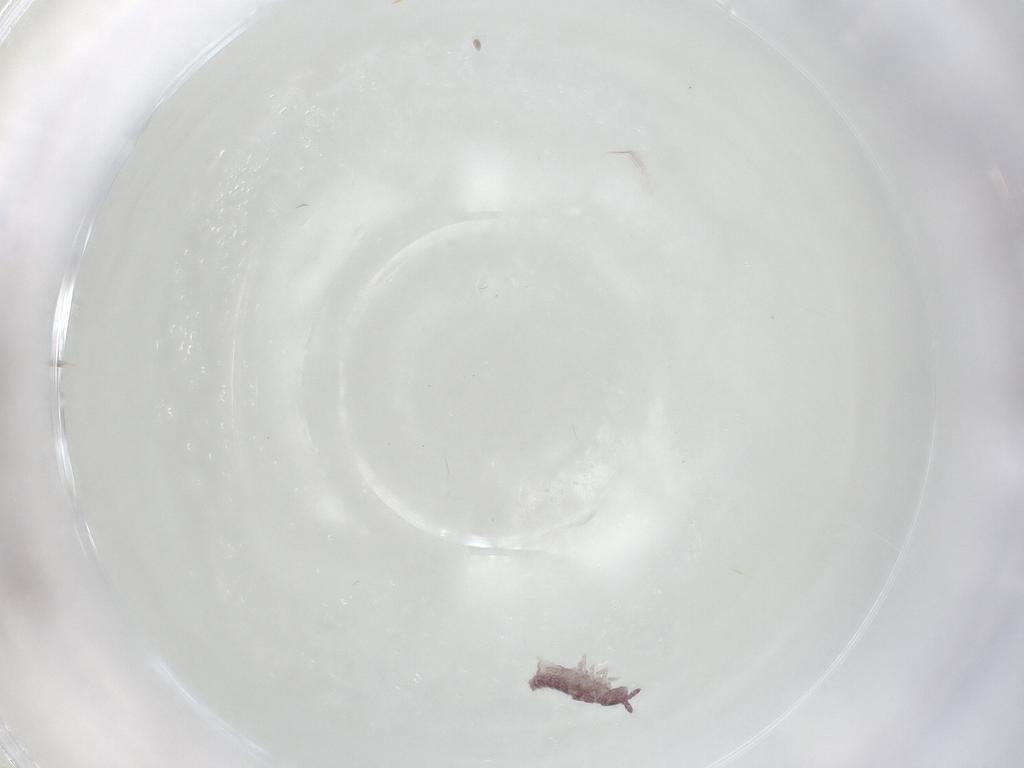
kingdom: Animalia
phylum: Arthropoda
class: Collembola
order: Poduromorpha
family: Hypogastruridae
